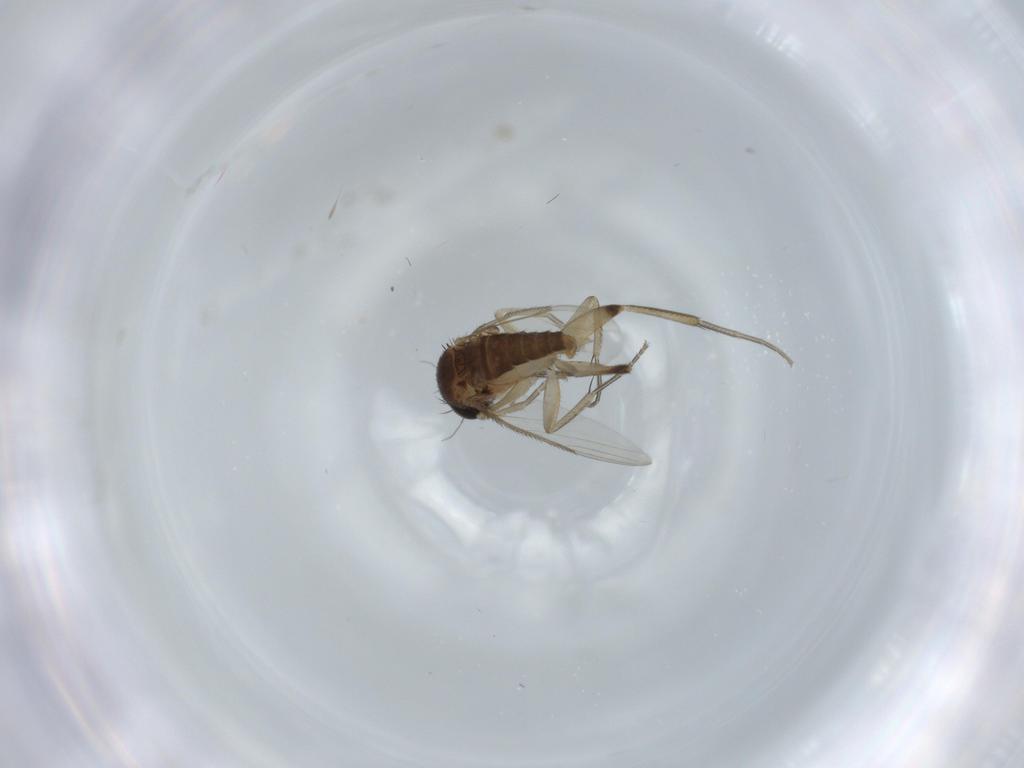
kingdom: Animalia
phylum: Arthropoda
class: Insecta
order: Diptera
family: Phoridae
